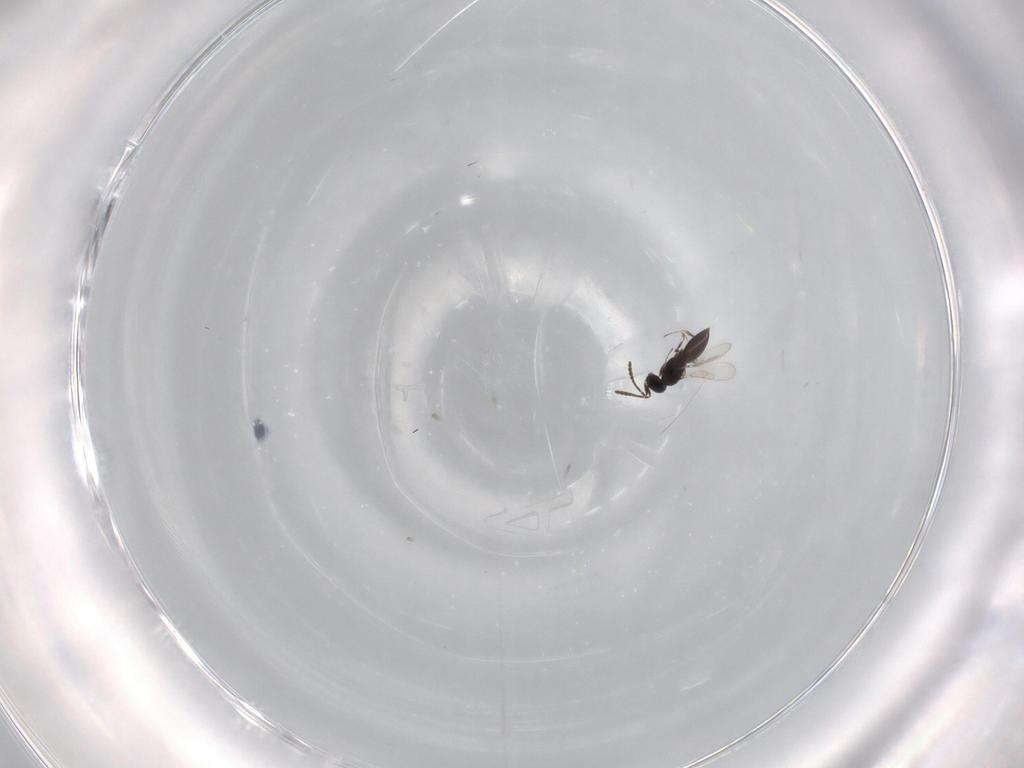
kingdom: Animalia
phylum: Arthropoda
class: Insecta
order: Hymenoptera
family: Scelionidae
